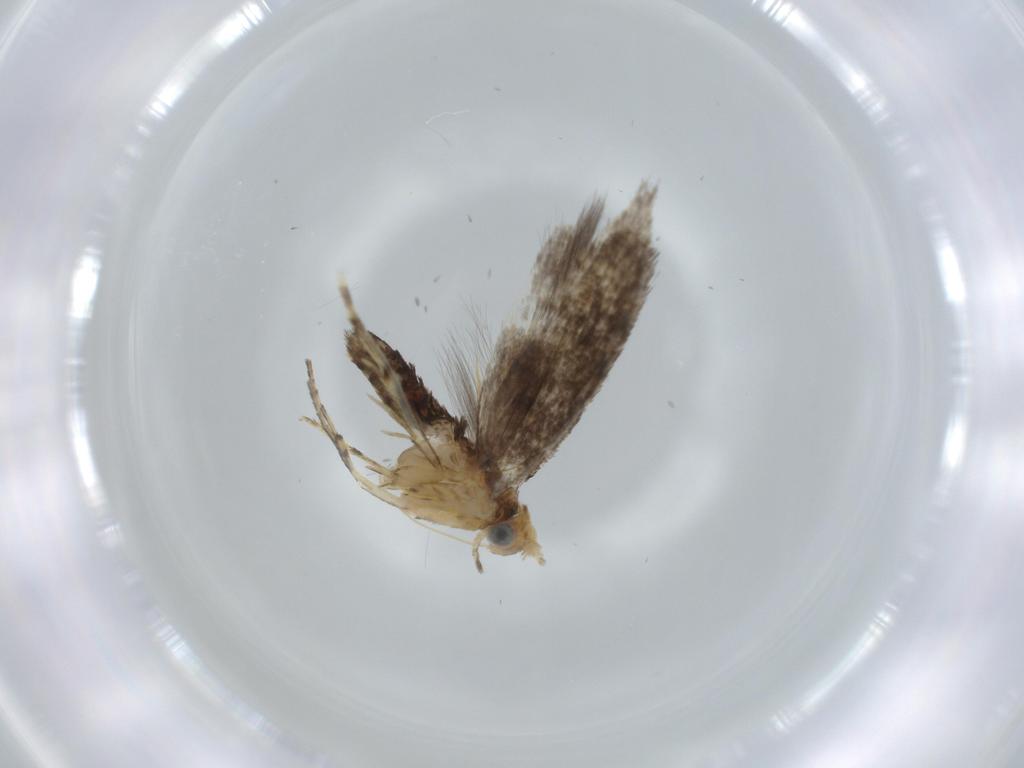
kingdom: Animalia
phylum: Arthropoda
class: Insecta
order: Lepidoptera
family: Argyresthiidae
